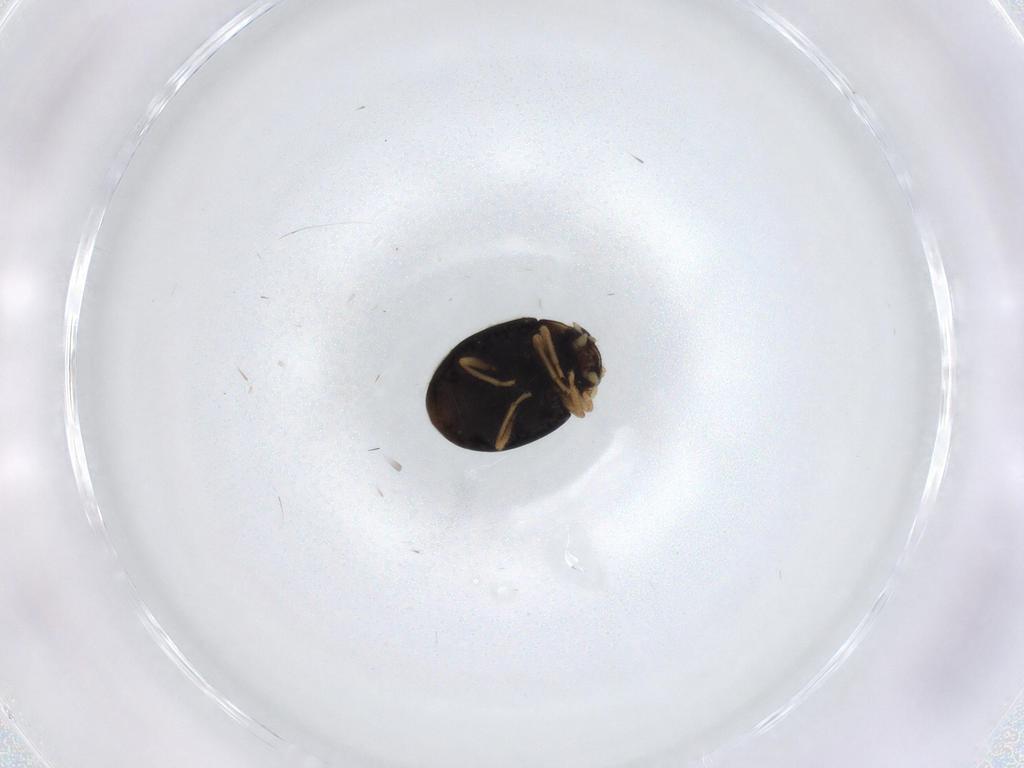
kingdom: Animalia
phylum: Arthropoda
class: Insecta
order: Coleoptera
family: Coccinellidae
